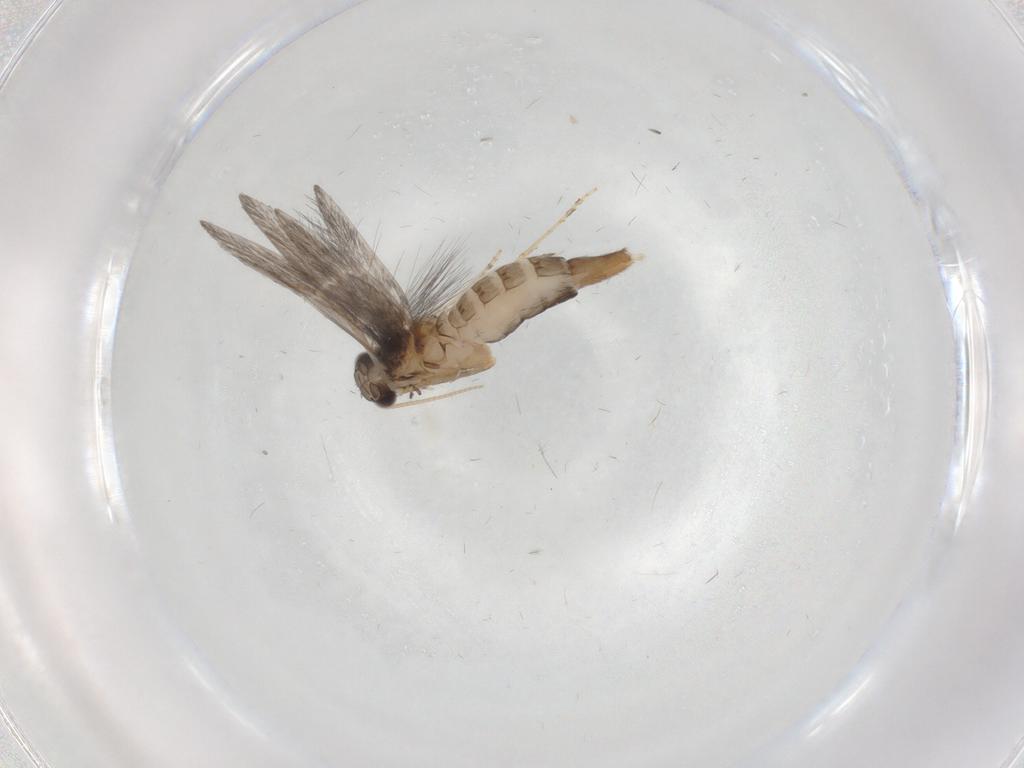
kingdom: Animalia
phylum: Arthropoda
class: Insecta
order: Trichoptera
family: Hydroptilidae
